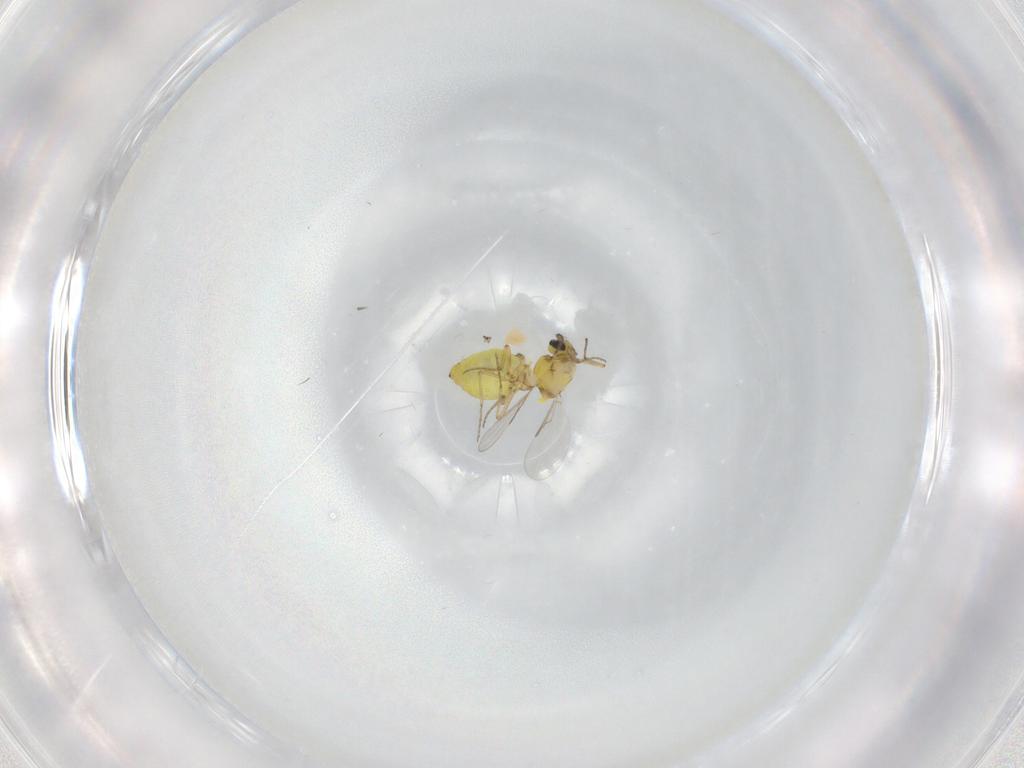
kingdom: Animalia
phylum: Arthropoda
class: Insecta
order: Diptera
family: Ceratopogonidae
